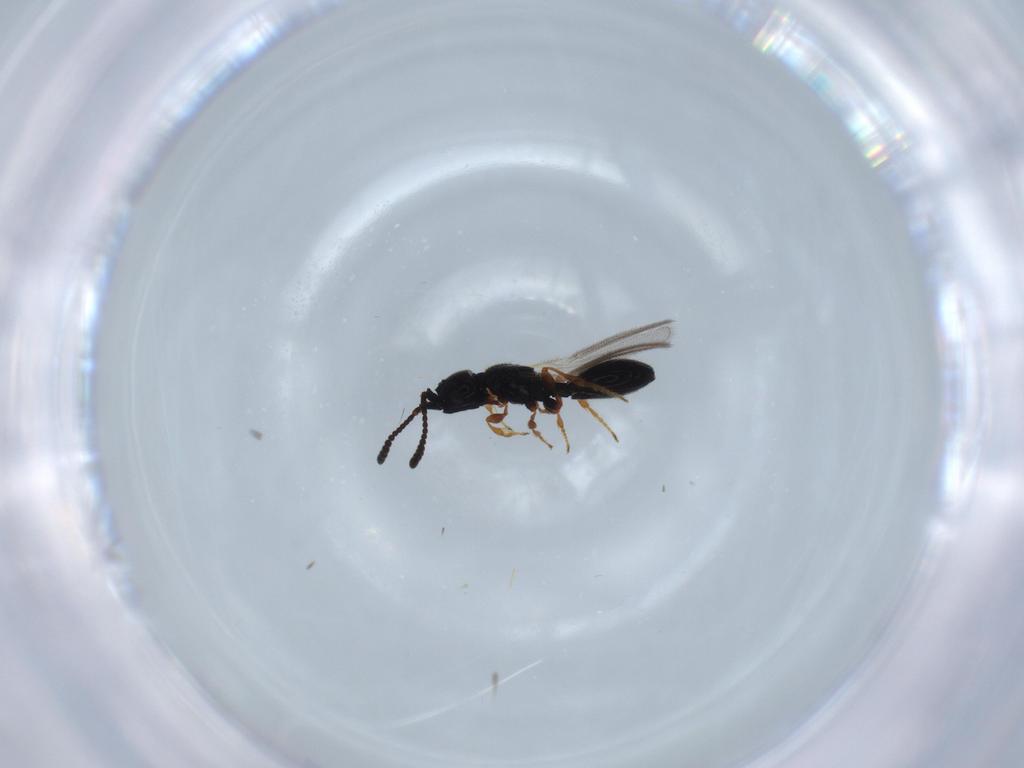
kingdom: Animalia
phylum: Arthropoda
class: Insecta
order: Hymenoptera
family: Diapriidae
